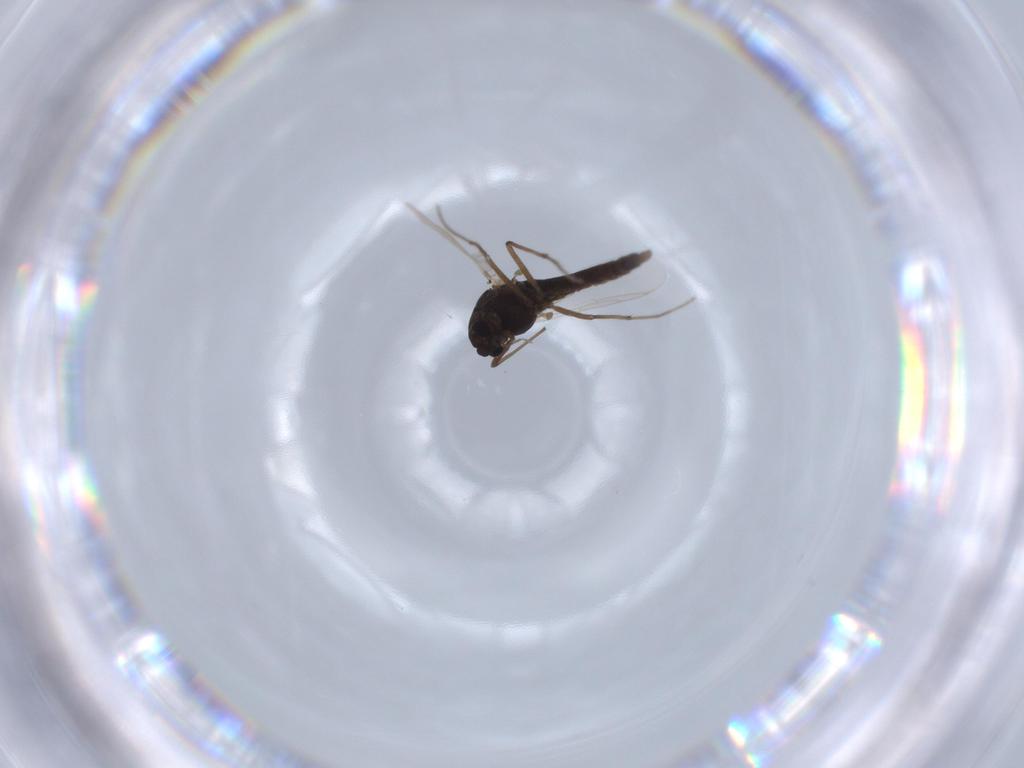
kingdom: Animalia
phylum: Arthropoda
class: Insecta
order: Diptera
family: Chironomidae
